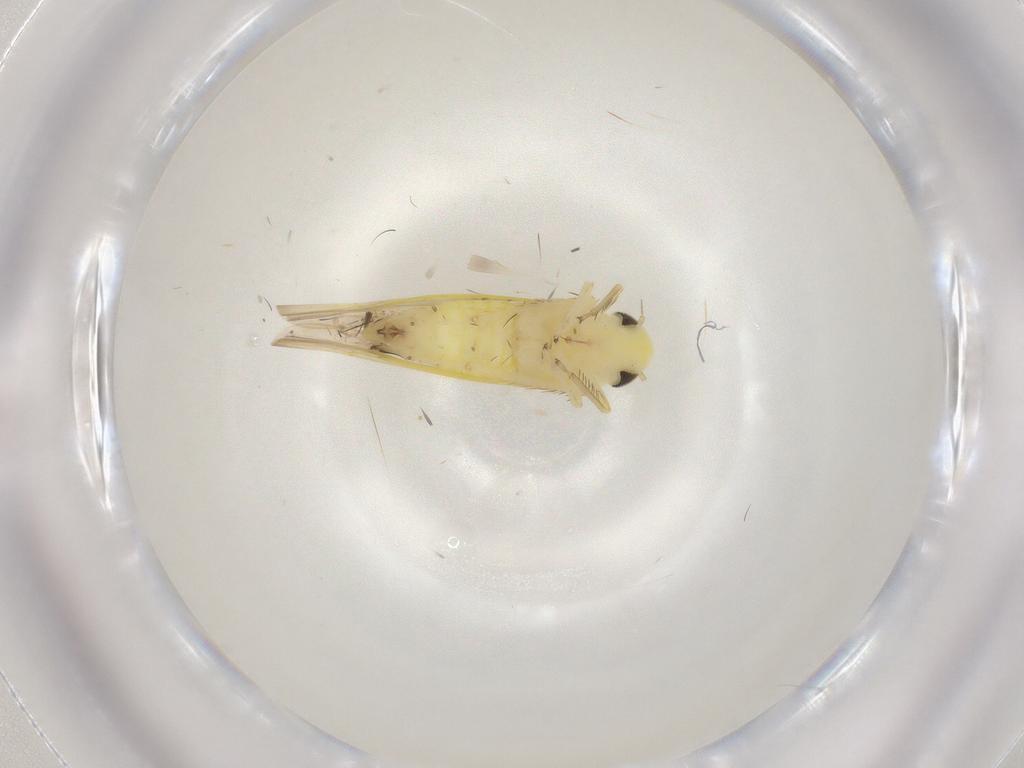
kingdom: Animalia
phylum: Arthropoda
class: Insecta
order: Hemiptera
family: Cicadellidae
